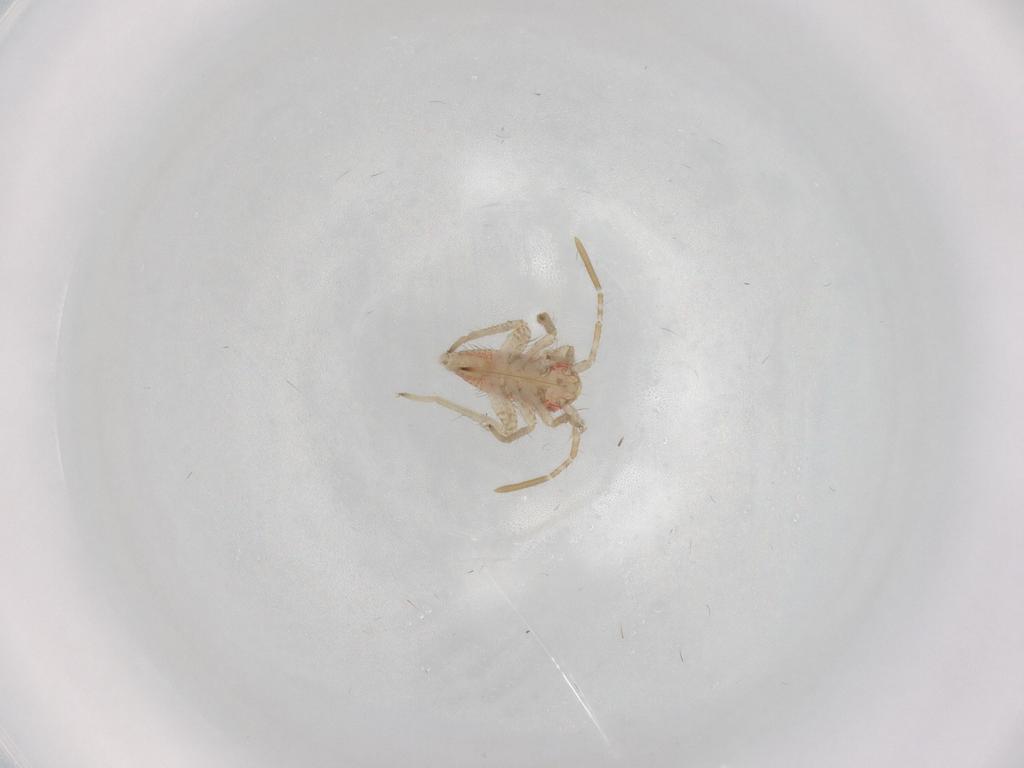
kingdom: Animalia
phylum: Arthropoda
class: Insecta
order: Hemiptera
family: Miridae
